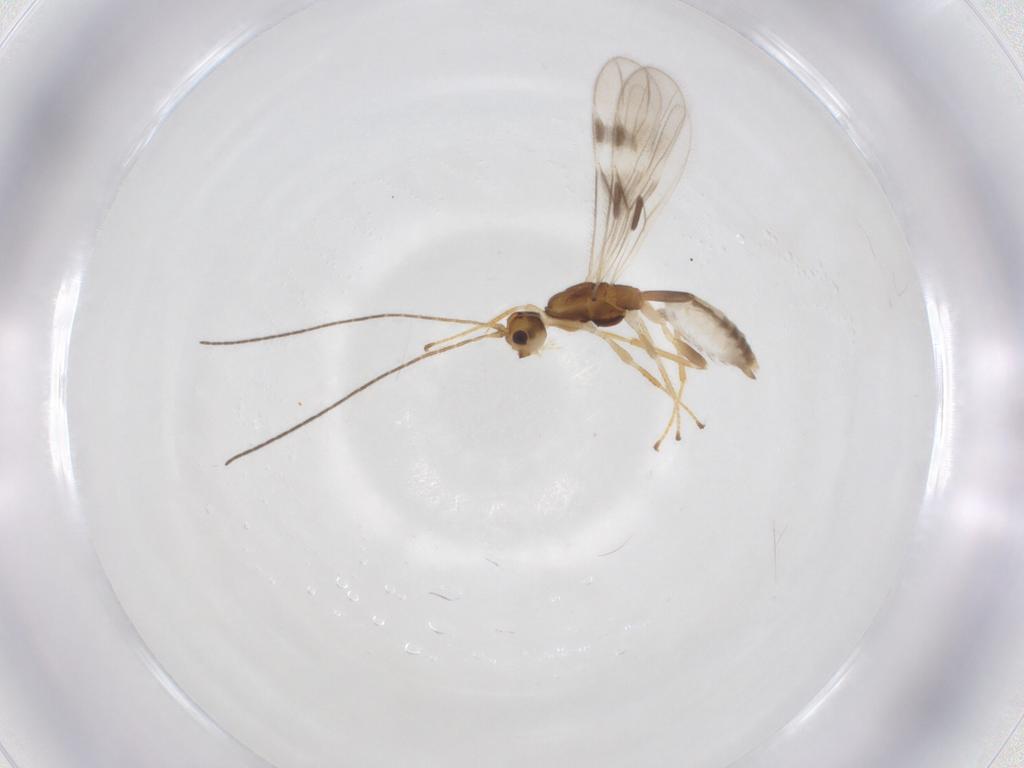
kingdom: Animalia
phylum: Arthropoda
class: Insecta
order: Hymenoptera
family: Braconidae
